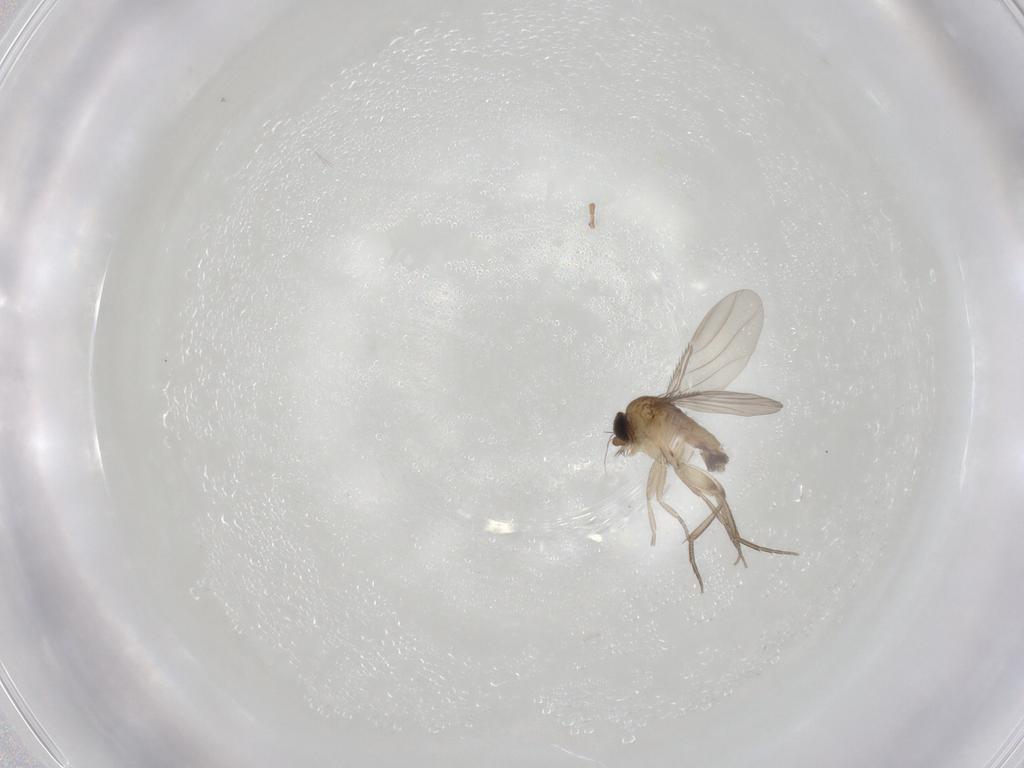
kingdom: Animalia
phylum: Arthropoda
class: Insecta
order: Diptera
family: Phoridae
